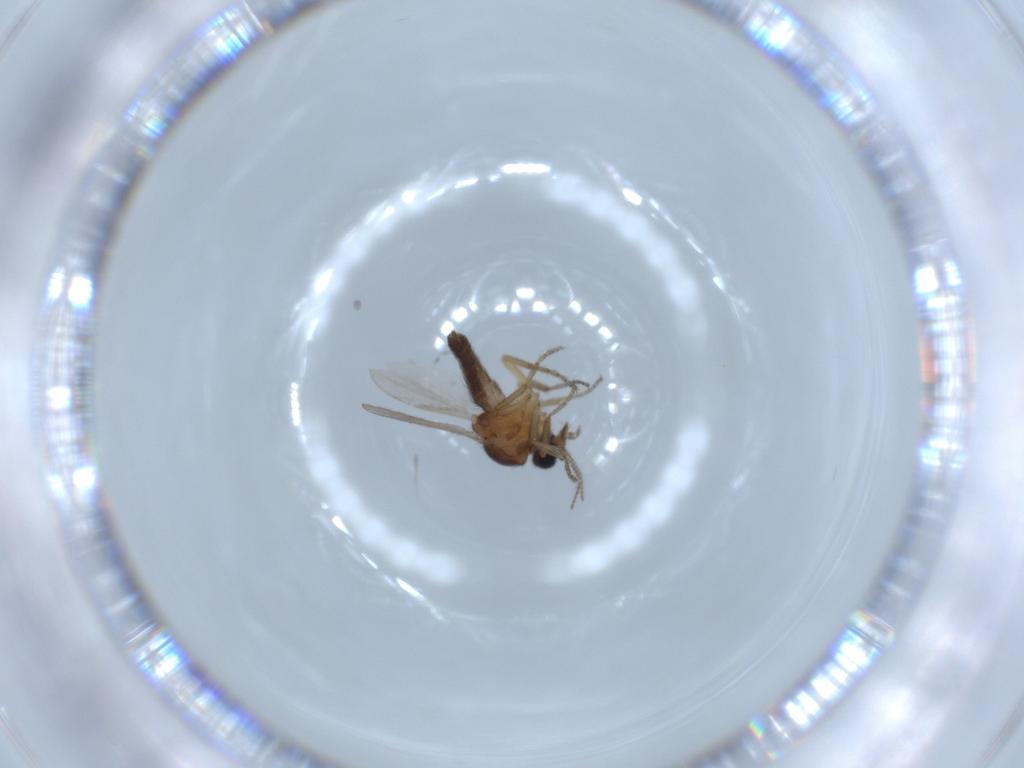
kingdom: Animalia
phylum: Arthropoda
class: Insecta
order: Diptera
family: Ceratopogonidae
